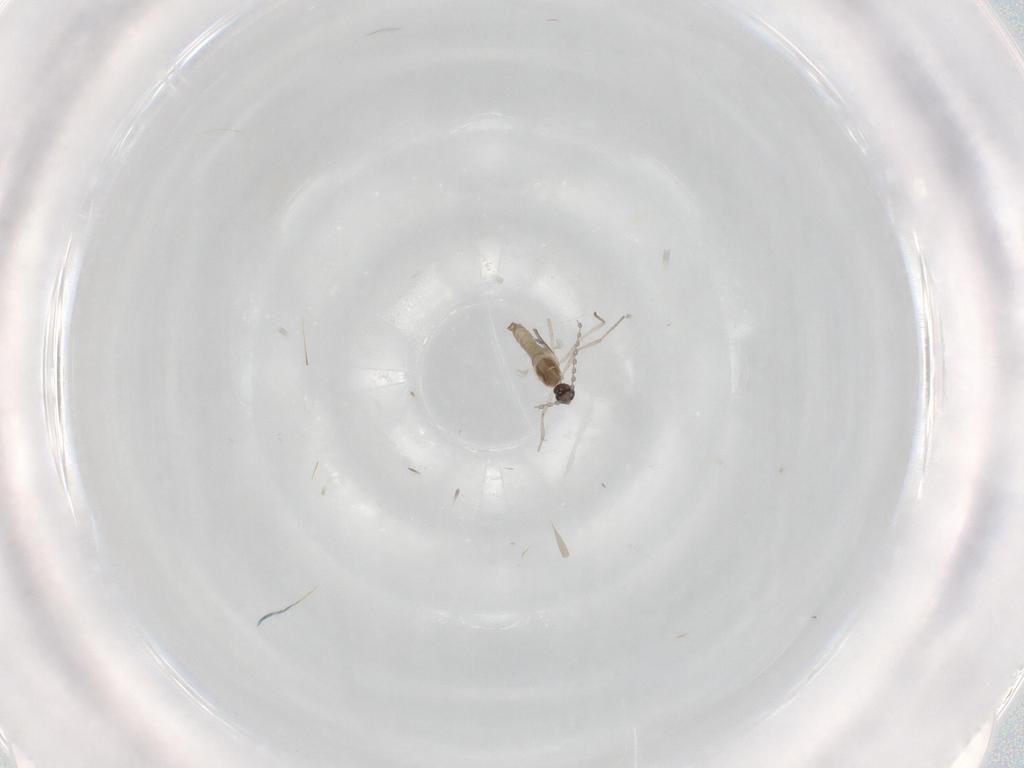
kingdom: Animalia
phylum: Arthropoda
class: Insecta
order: Diptera
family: Cecidomyiidae
